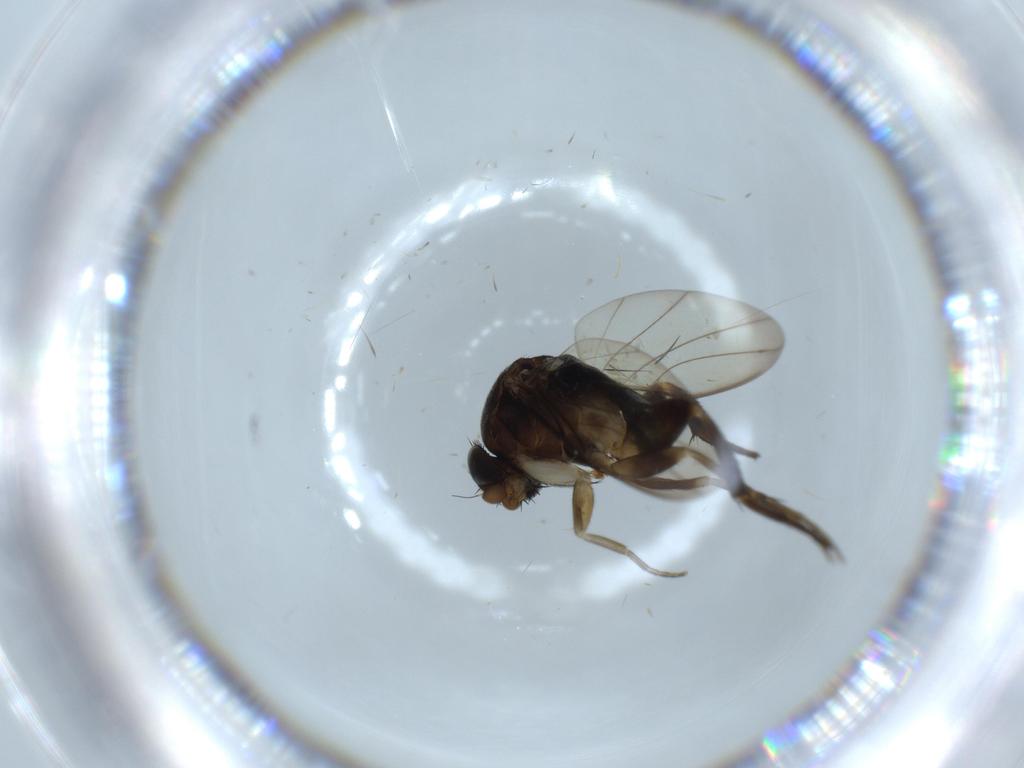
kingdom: Animalia
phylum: Arthropoda
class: Insecta
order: Diptera
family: Phoridae
